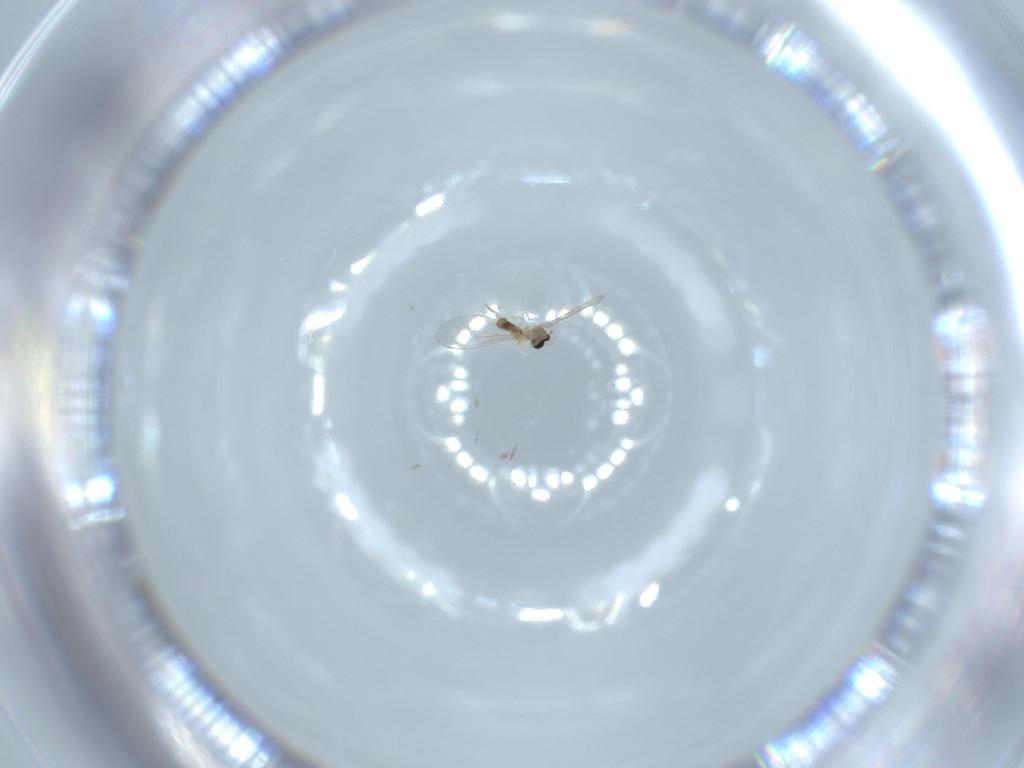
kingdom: Animalia
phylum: Arthropoda
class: Insecta
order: Diptera
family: Cecidomyiidae
